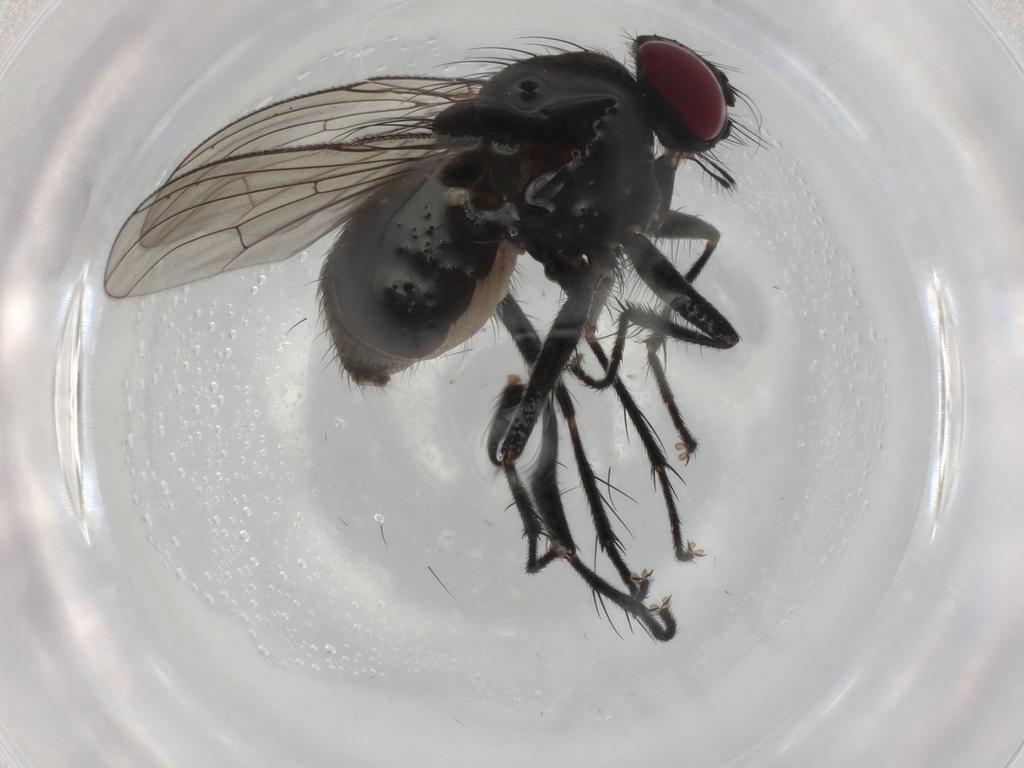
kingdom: Animalia
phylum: Arthropoda
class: Insecta
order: Diptera
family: Muscidae
